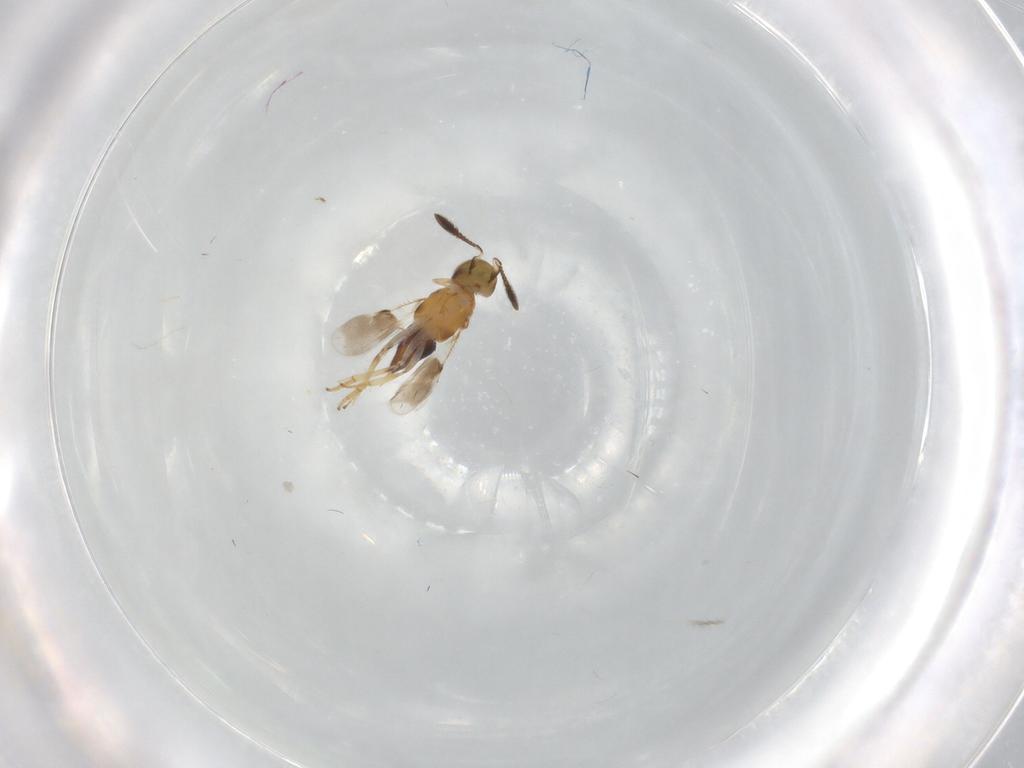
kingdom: Animalia
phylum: Arthropoda
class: Insecta
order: Hymenoptera
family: Formicidae
